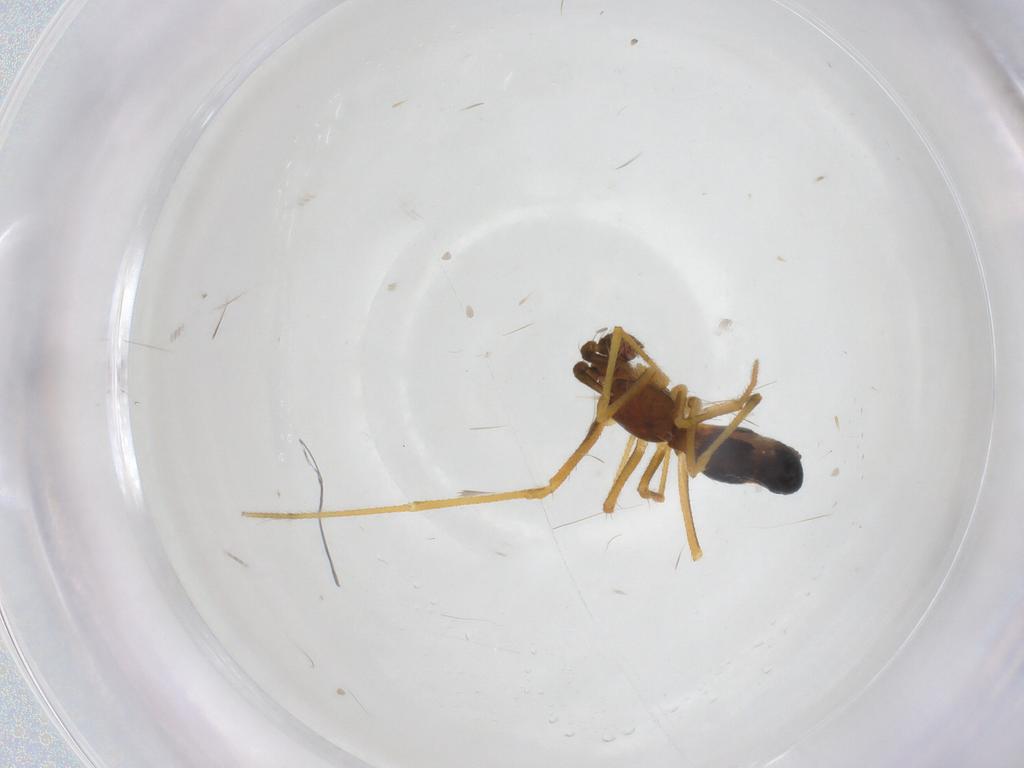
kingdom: Animalia
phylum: Arthropoda
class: Arachnida
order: Araneae
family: Theridiidae
